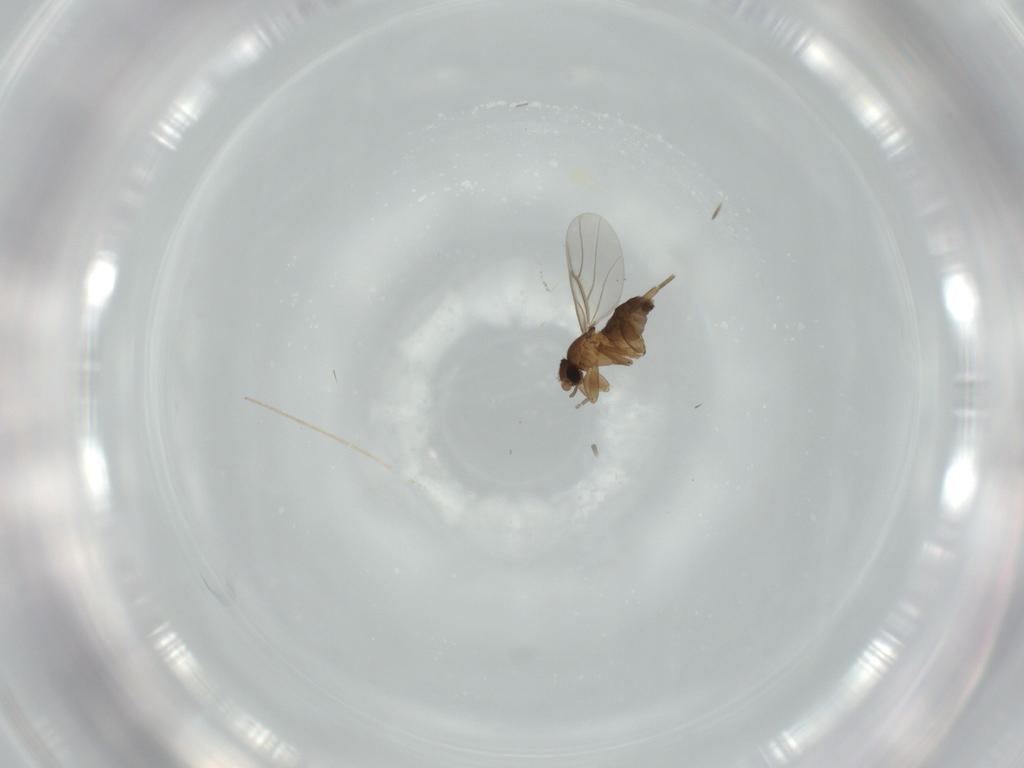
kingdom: Animalia
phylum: Arthropoda
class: Insecta
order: Diptera
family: Phoridae
